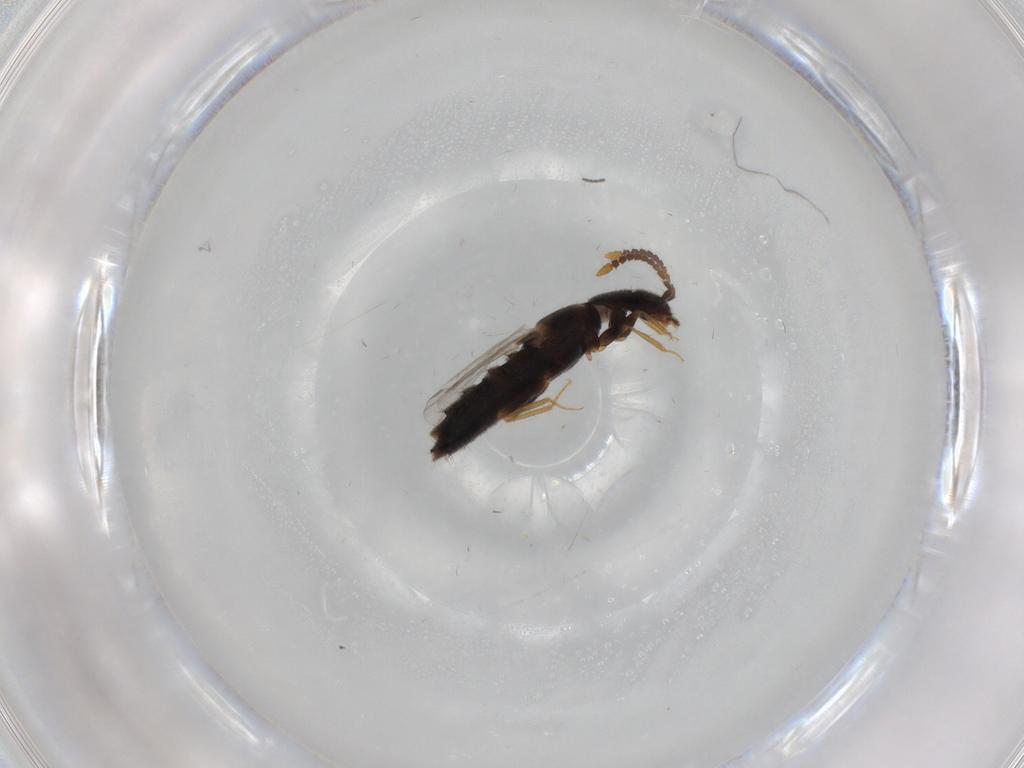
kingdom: Animalia
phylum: Arthropoda
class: Insecta
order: Coleoptera
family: Staphylinidae
